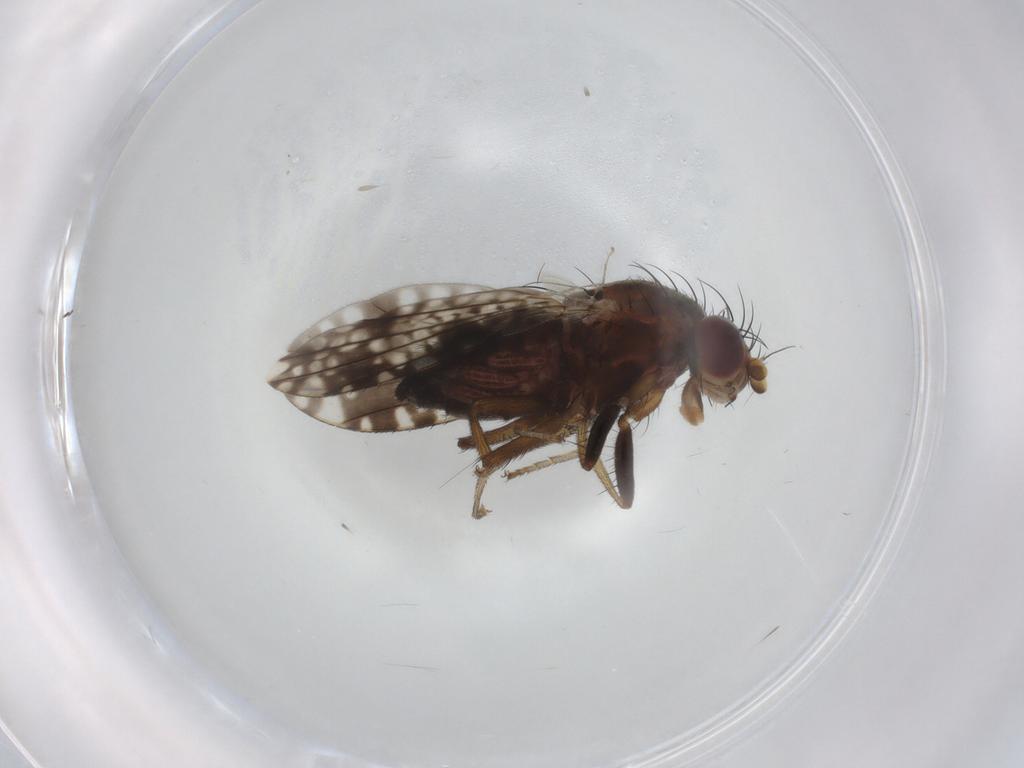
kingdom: Animalia
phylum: Arthropoda
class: Insecta
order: Diptera
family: Tephritidae
